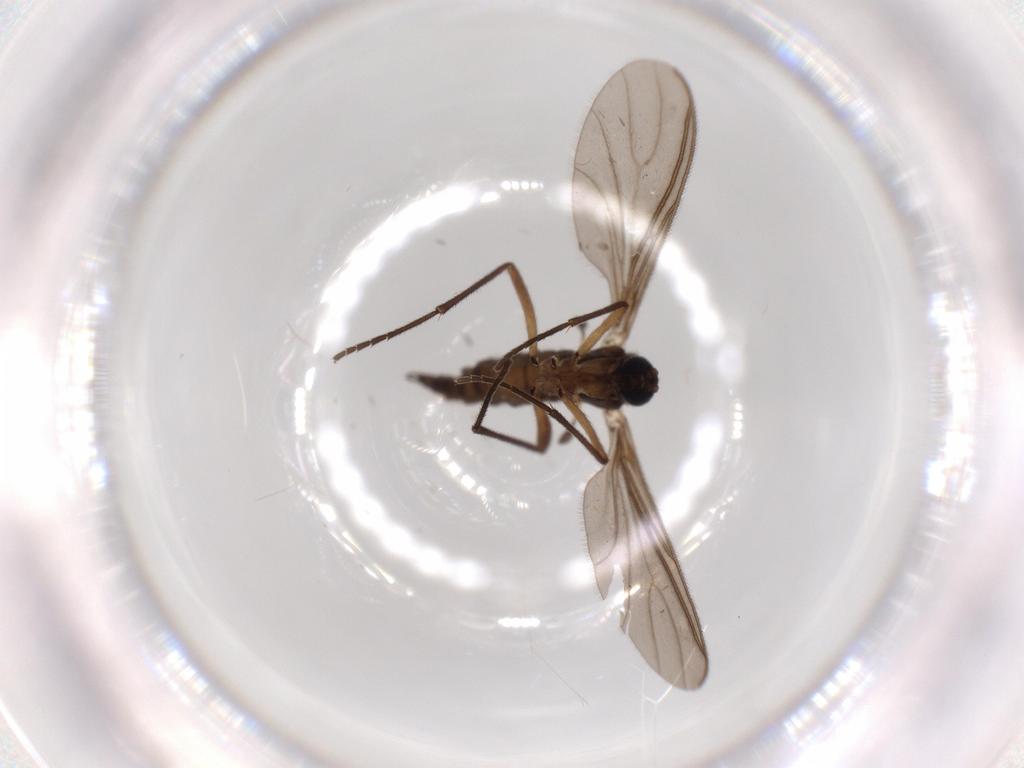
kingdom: Animalia
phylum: Arthropoda
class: Insecta
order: Diptera
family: Sciaridae
